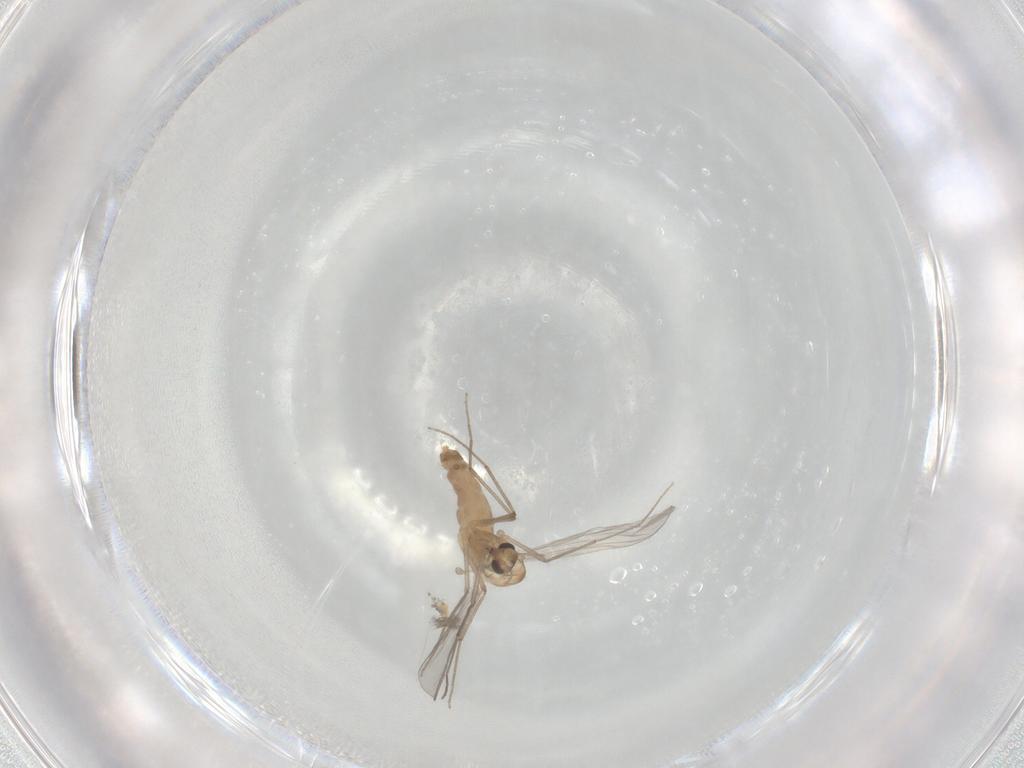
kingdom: Animalia
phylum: Arthropoda
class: Insecta
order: Diptera
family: Chironomidae
